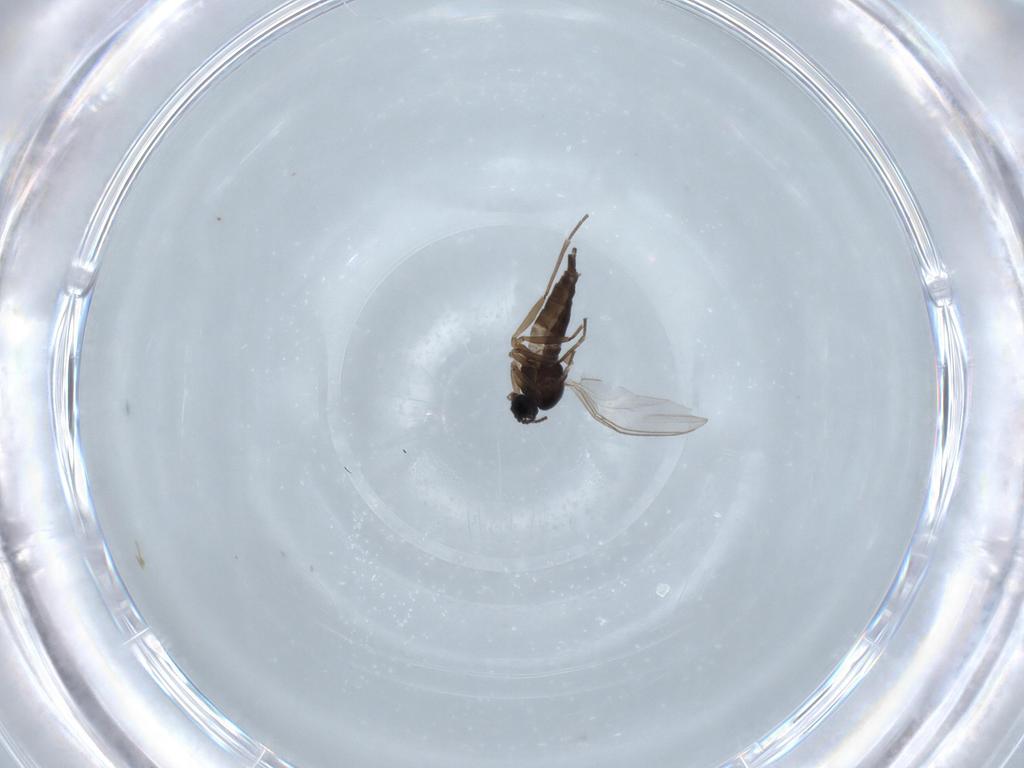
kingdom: Animalia
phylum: Arthropoda
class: Insecta
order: Diptera
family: Sciaridae
